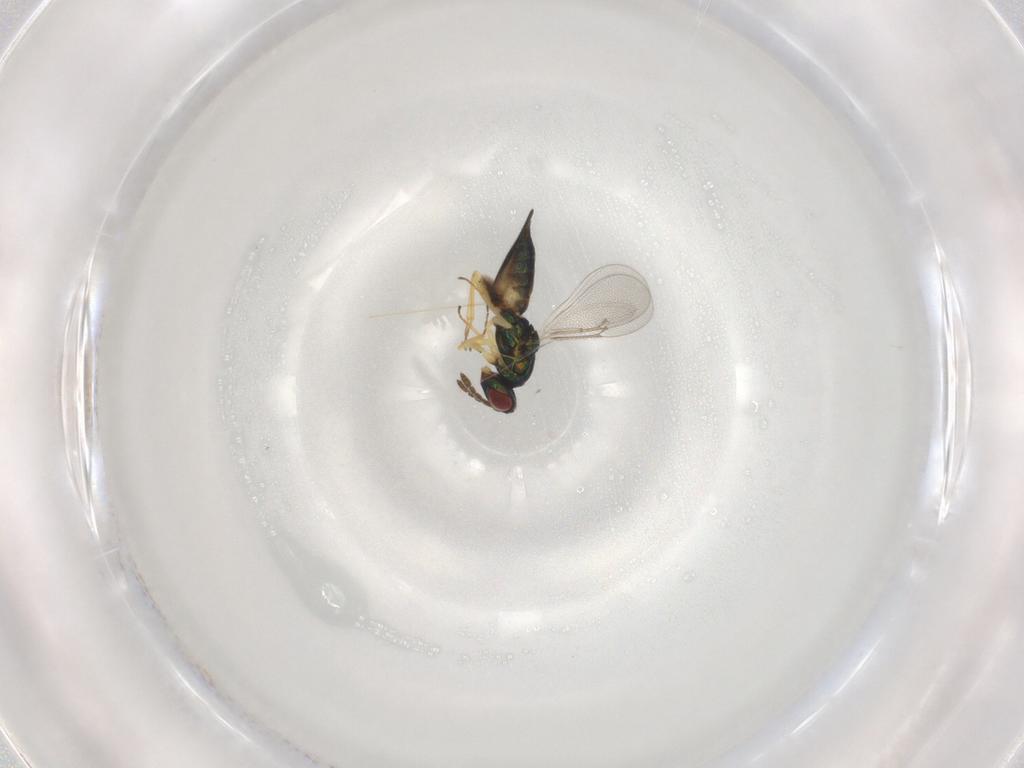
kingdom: Animalia
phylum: Arthropoda
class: Insecta
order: Hymenoptera
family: Eulophidae
